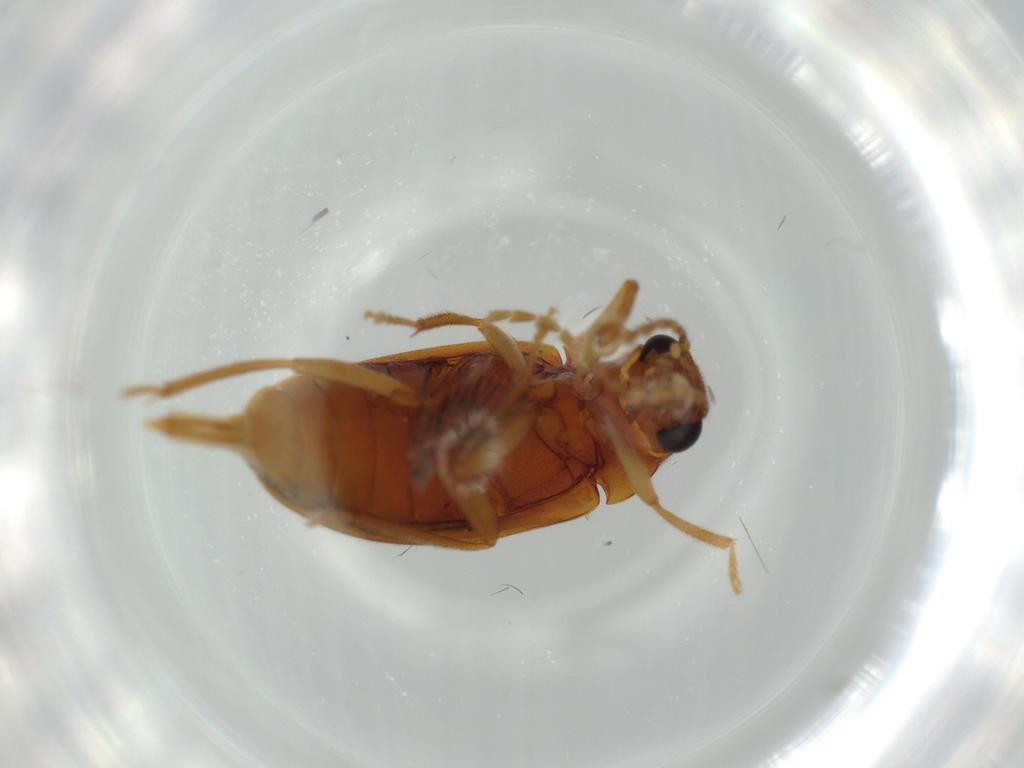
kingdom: Animalia
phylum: Arthropoda
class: Insecta
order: Coleoptera
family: Ptilodactylidae
